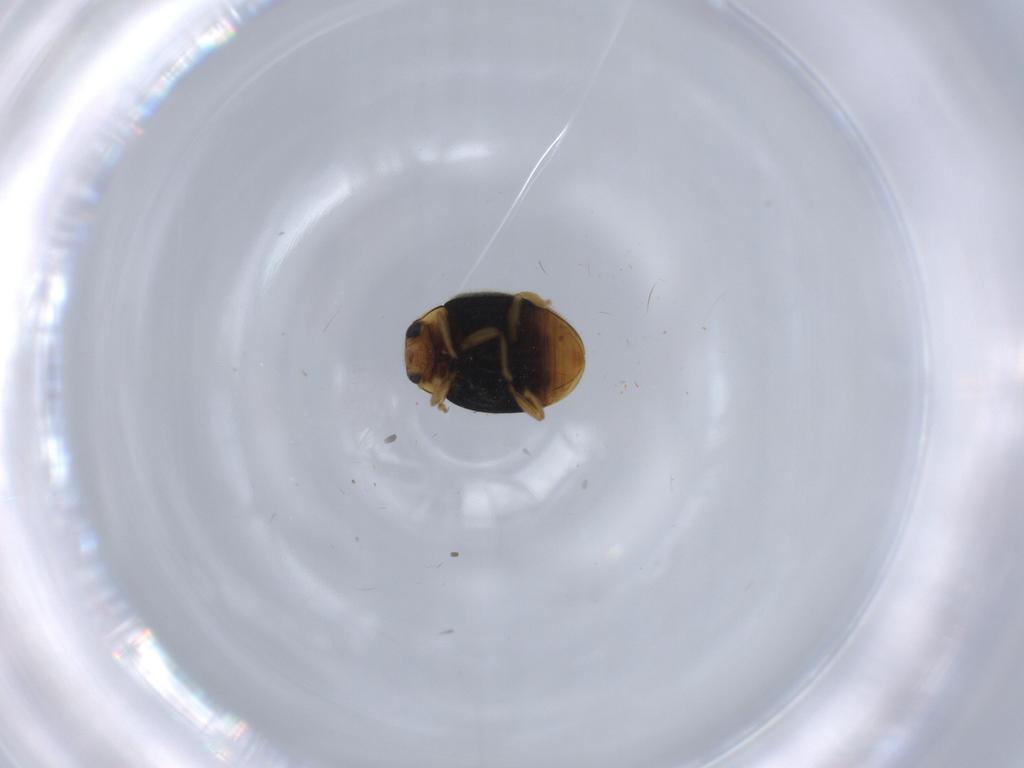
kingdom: Animalia
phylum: Arthropoda
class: Insecta
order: Coleoptera
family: Coccinellidae
